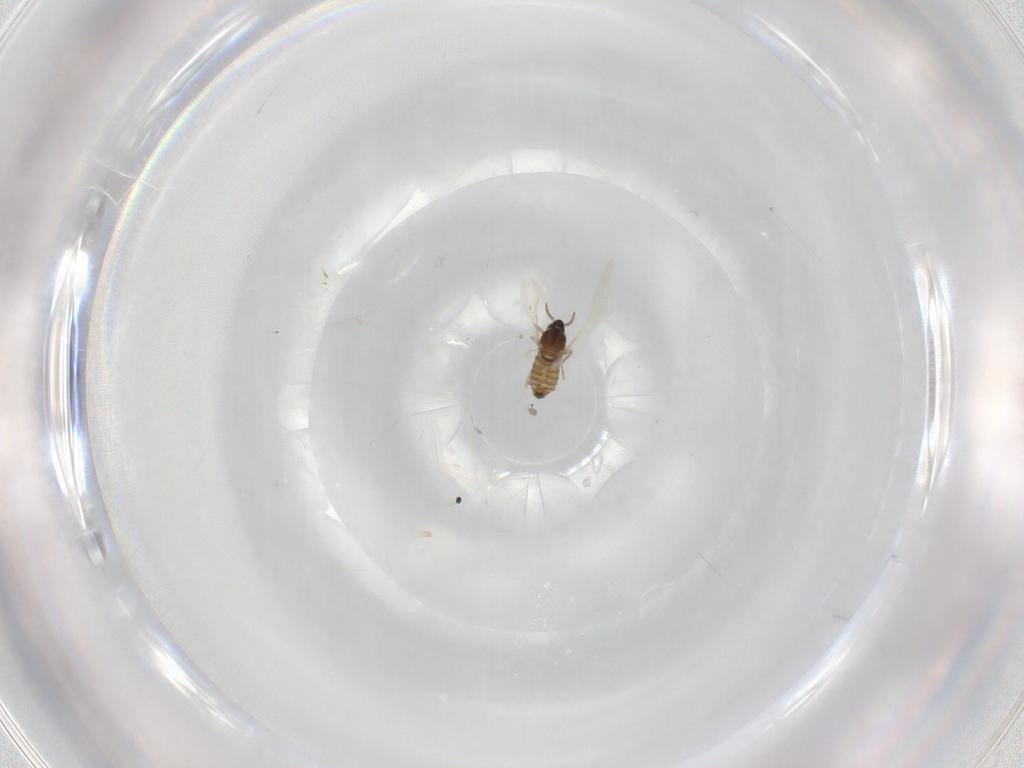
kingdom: Animalia
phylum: Arthropoda
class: Insecta
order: Diptera
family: Cecidomyiidae
